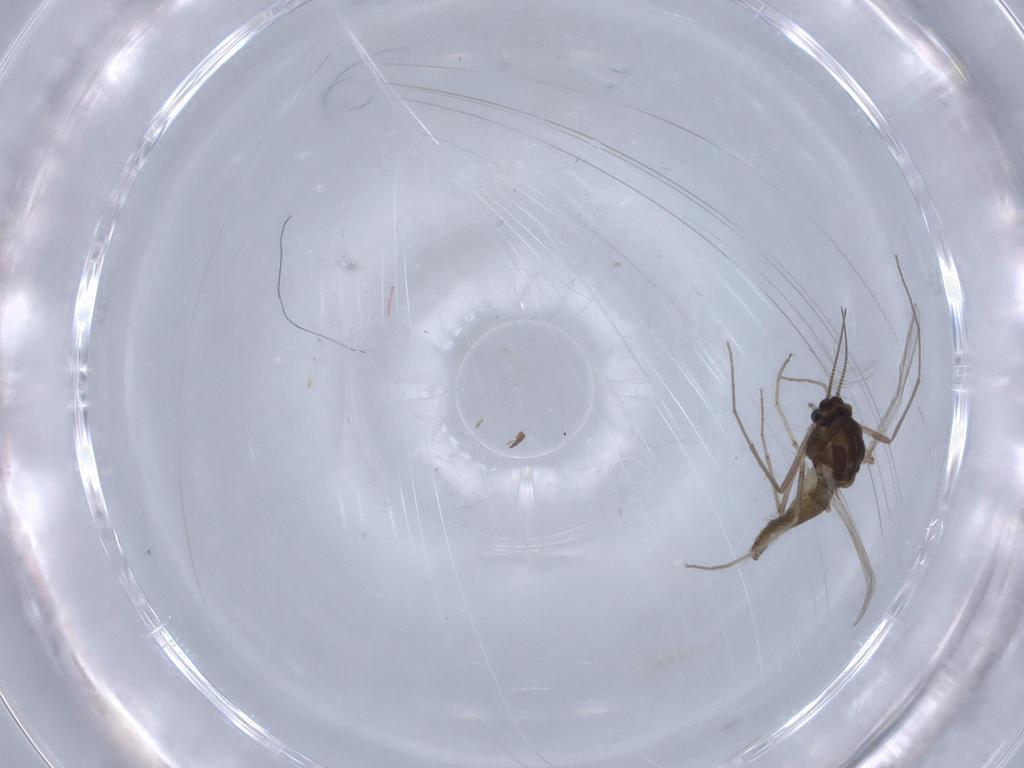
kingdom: Animalia
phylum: Arthropoda
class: Insecta
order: Diptera
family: Chironomidae
